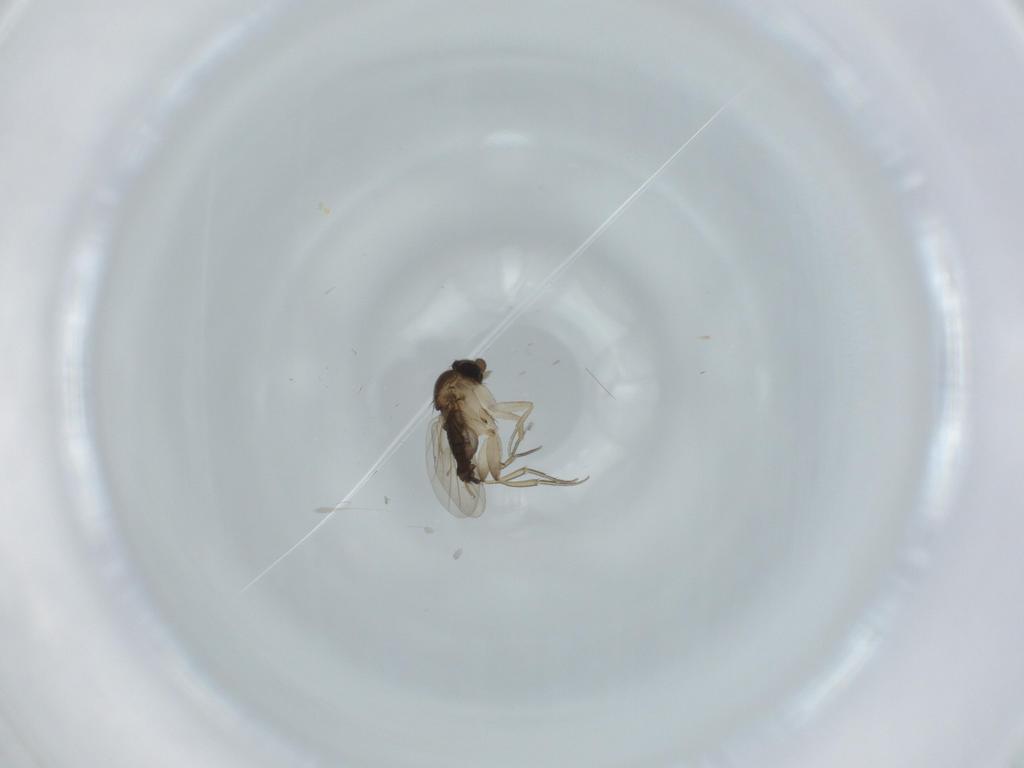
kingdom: Animalia
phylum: Arthropoda
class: Insecta
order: Diptera
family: Phoridae
